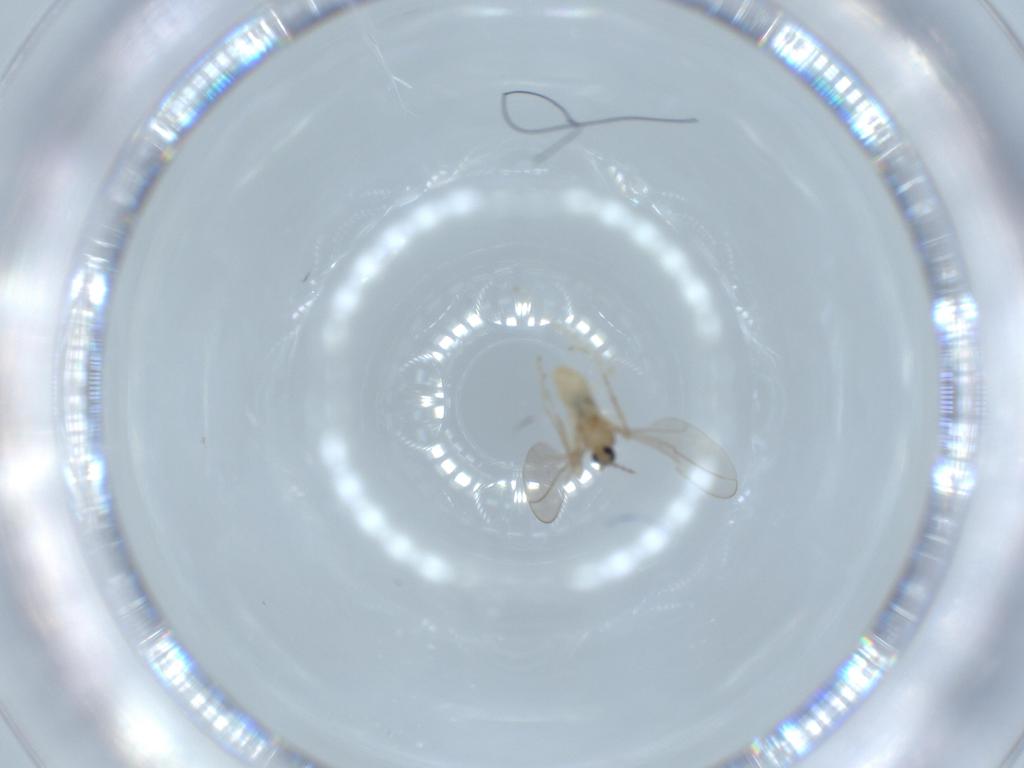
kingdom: Animalia
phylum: Arthropoda
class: Insecta
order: Diptera
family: Cecidomyiidae
